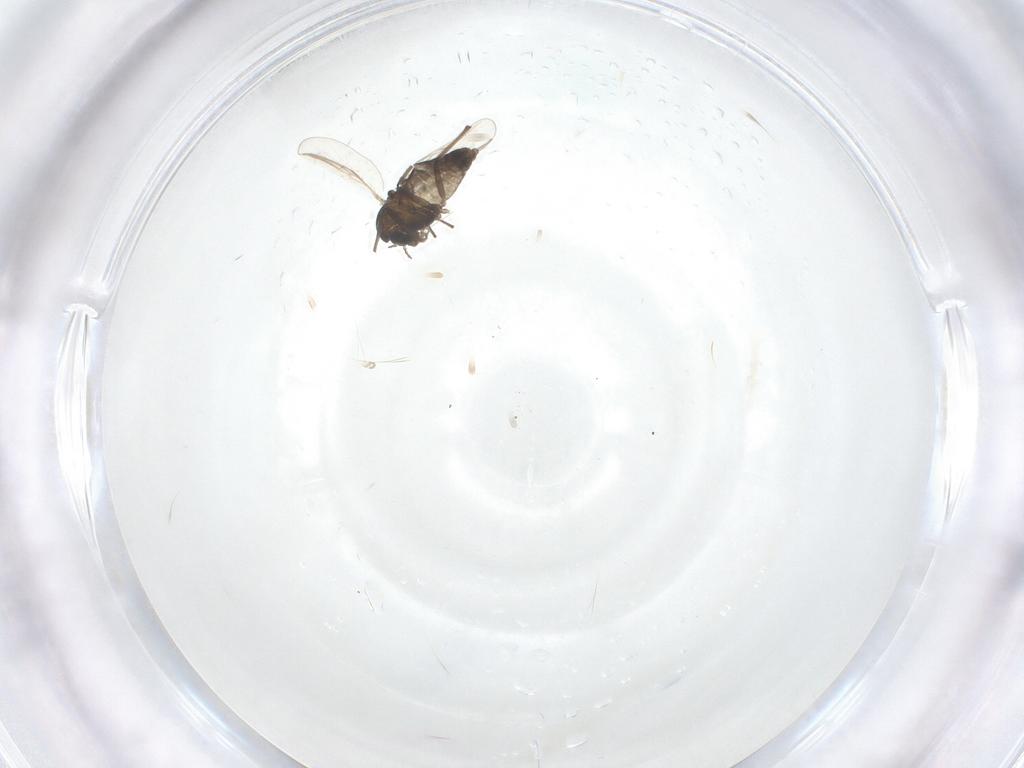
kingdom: Animalia
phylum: Arthropoda
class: Insecta
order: Diptera
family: Chironomidae
